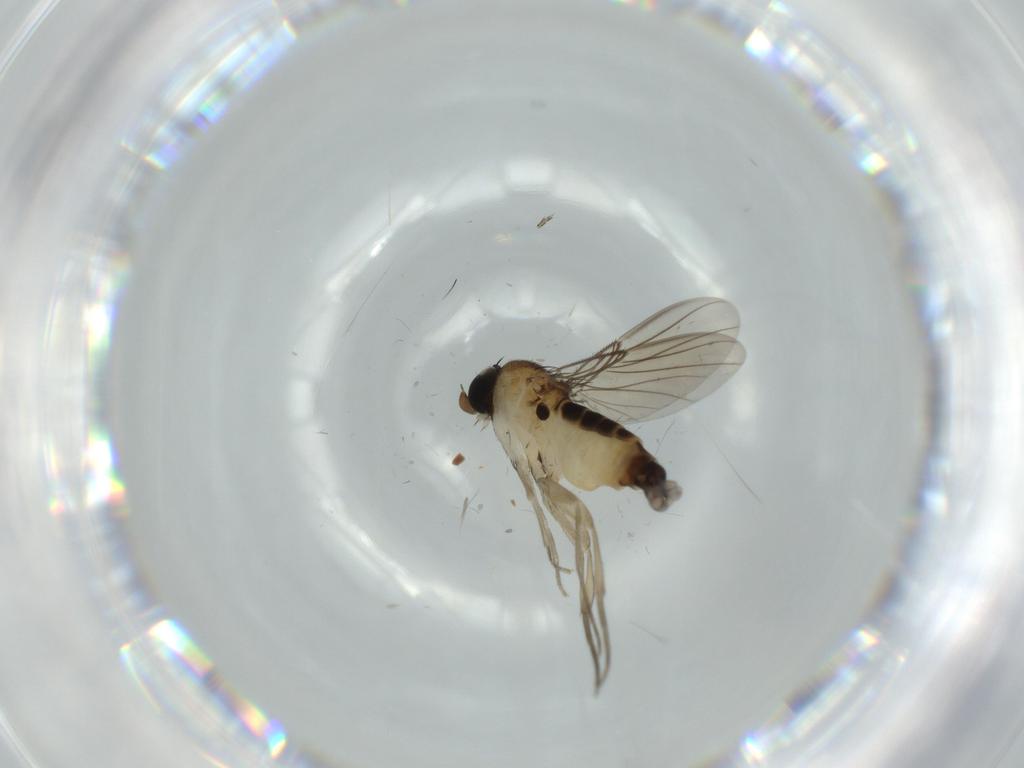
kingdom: Animalia
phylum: Arthropoda
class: Insecta
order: Diptera
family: Phoridae
